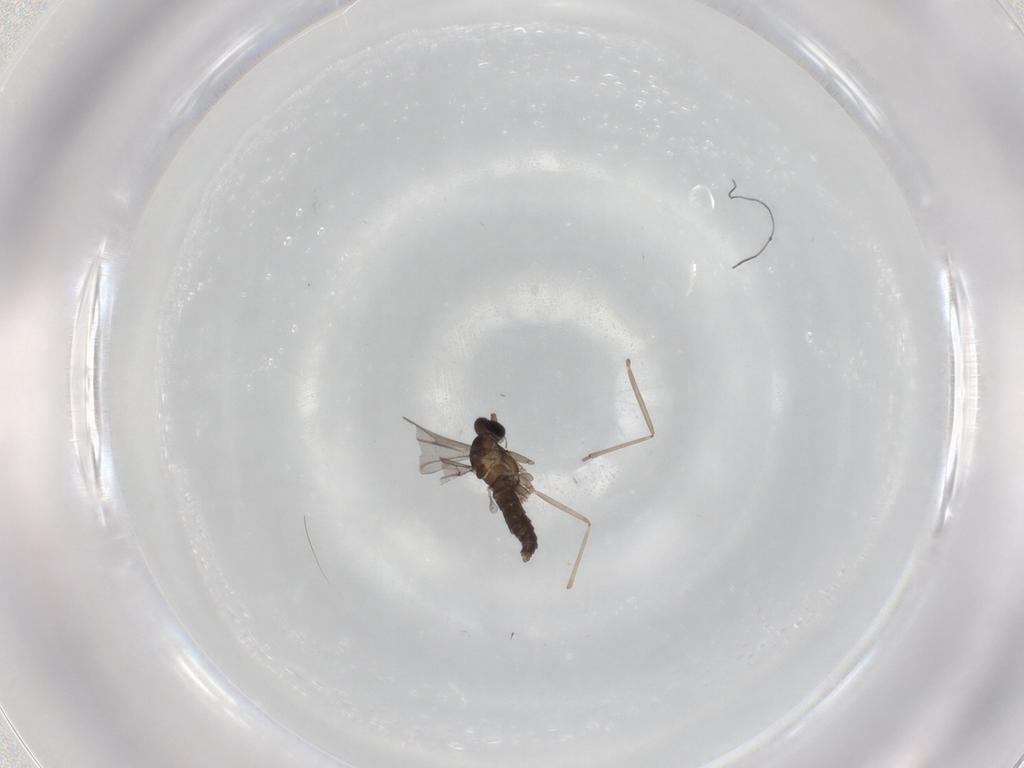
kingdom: Animalia
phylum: Arthropoda
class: Insecta
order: Diptera
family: Cecidomyiidae
